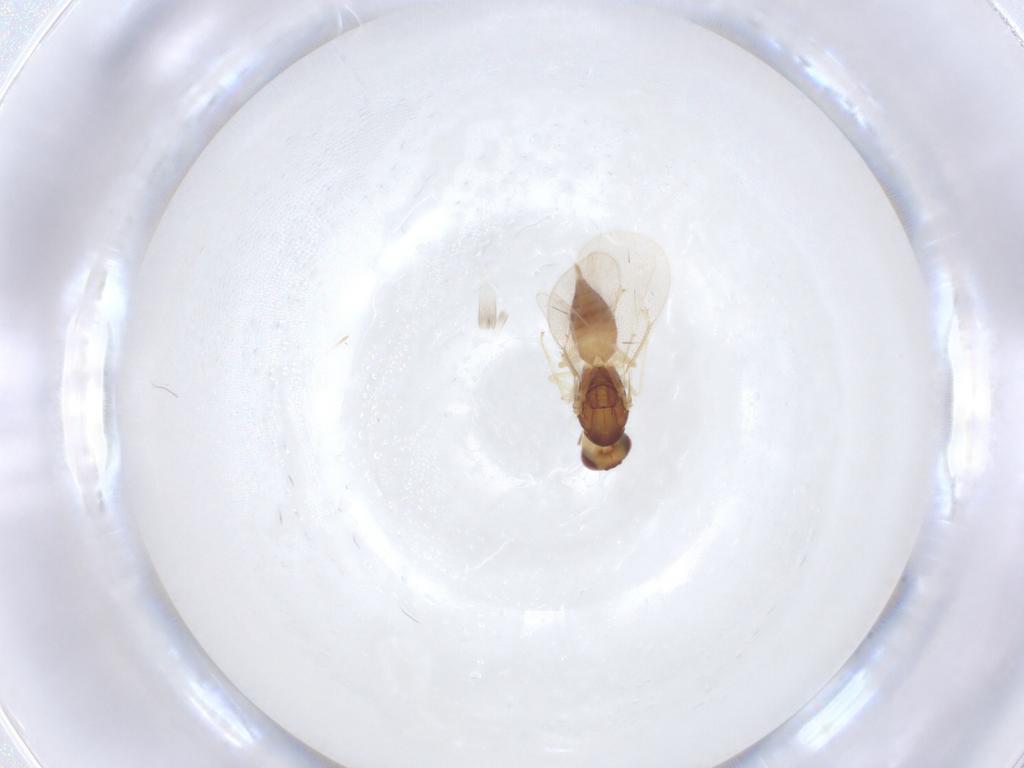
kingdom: Animalia
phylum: Arthropoda
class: Insecta
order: Hymenoptera
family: Eulophidae
